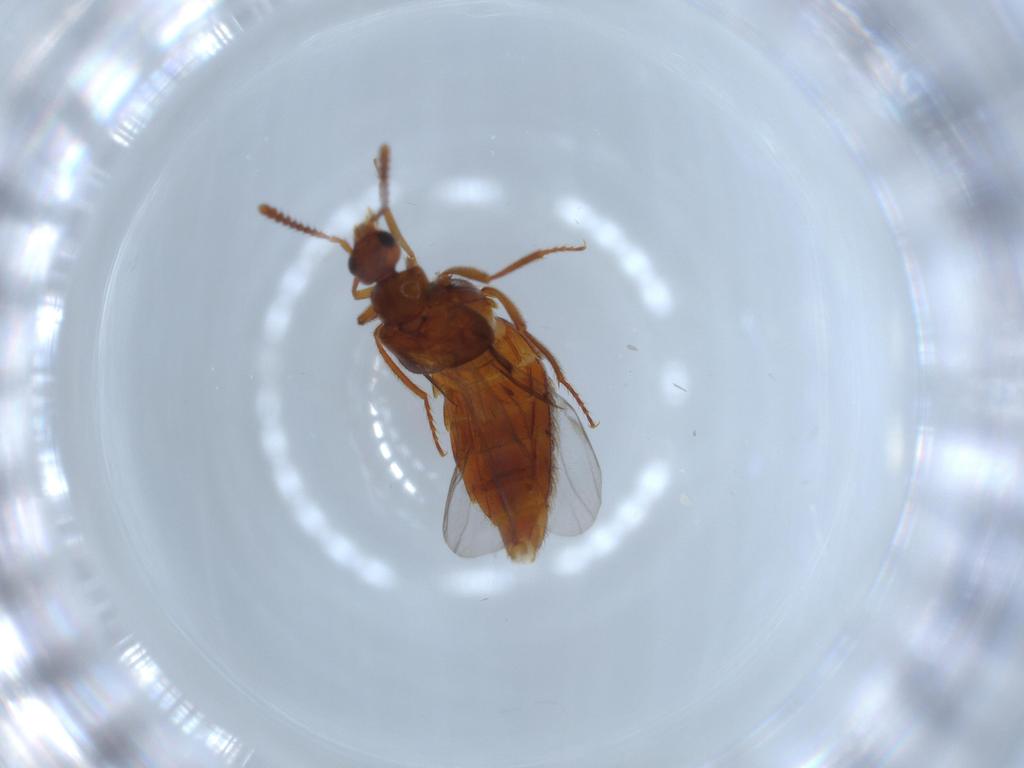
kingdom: Animalia
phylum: Arthropoda
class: Insecta
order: Coleoptera
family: Staphylinidae
